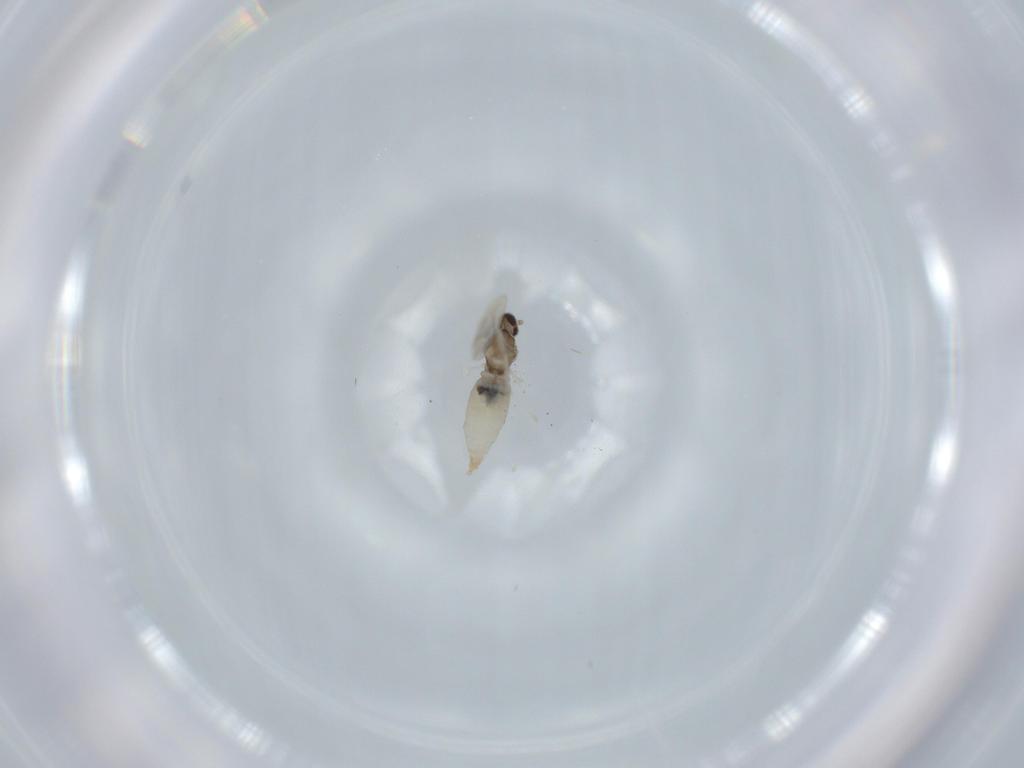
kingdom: Animalia
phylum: Arthropoda
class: Insecta
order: Diptera
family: Cecidomyiidae
